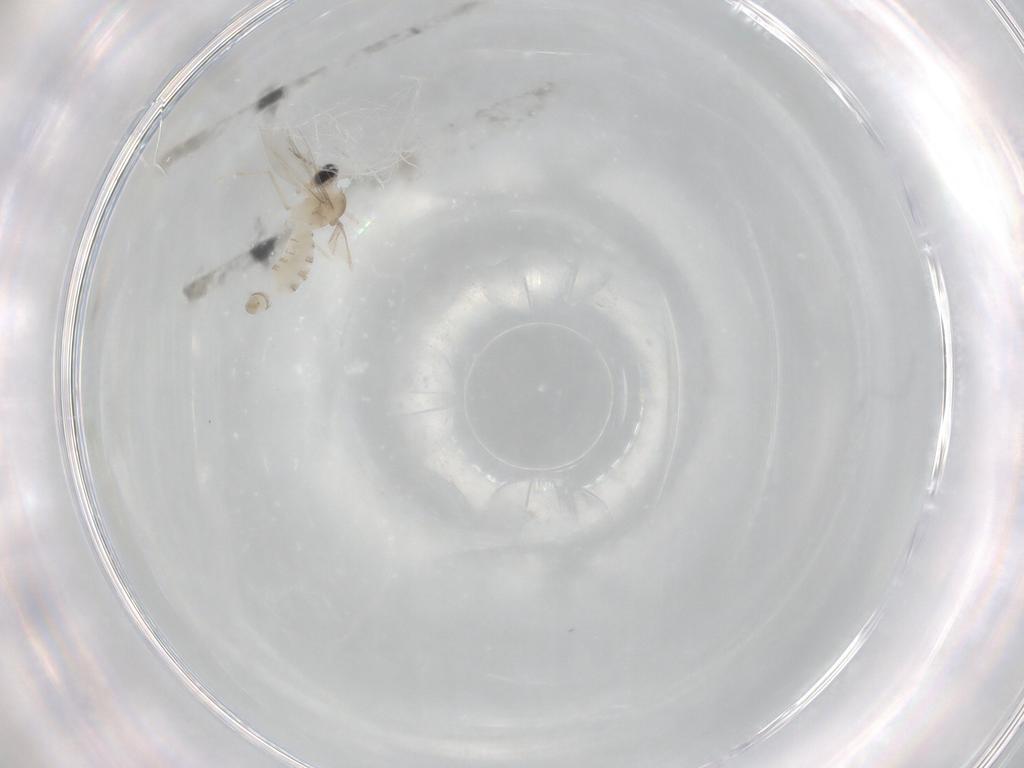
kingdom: Animalia
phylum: Arthropoda
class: Insecta
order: Diptera
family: Cecidomyiidae
